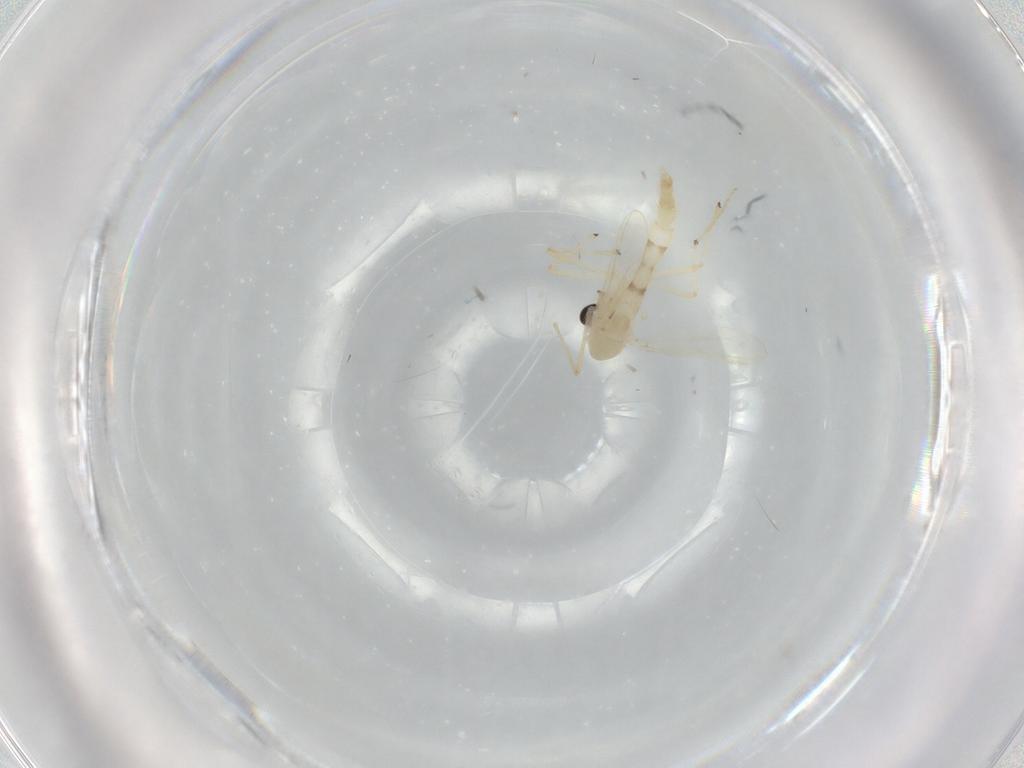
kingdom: Animalia
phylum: Arthropoda
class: Insecta
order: Diptera
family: Chironomidae
